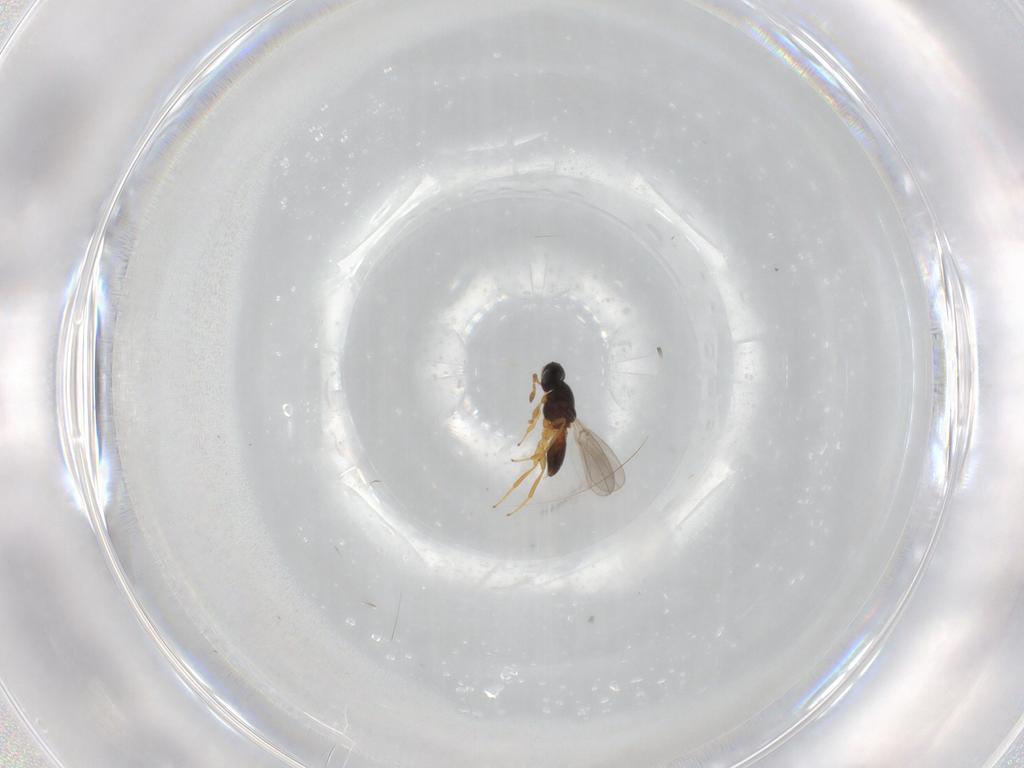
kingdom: Animalia
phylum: Arthropoda
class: Insecta
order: Hymenoptera
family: Platygastridae
